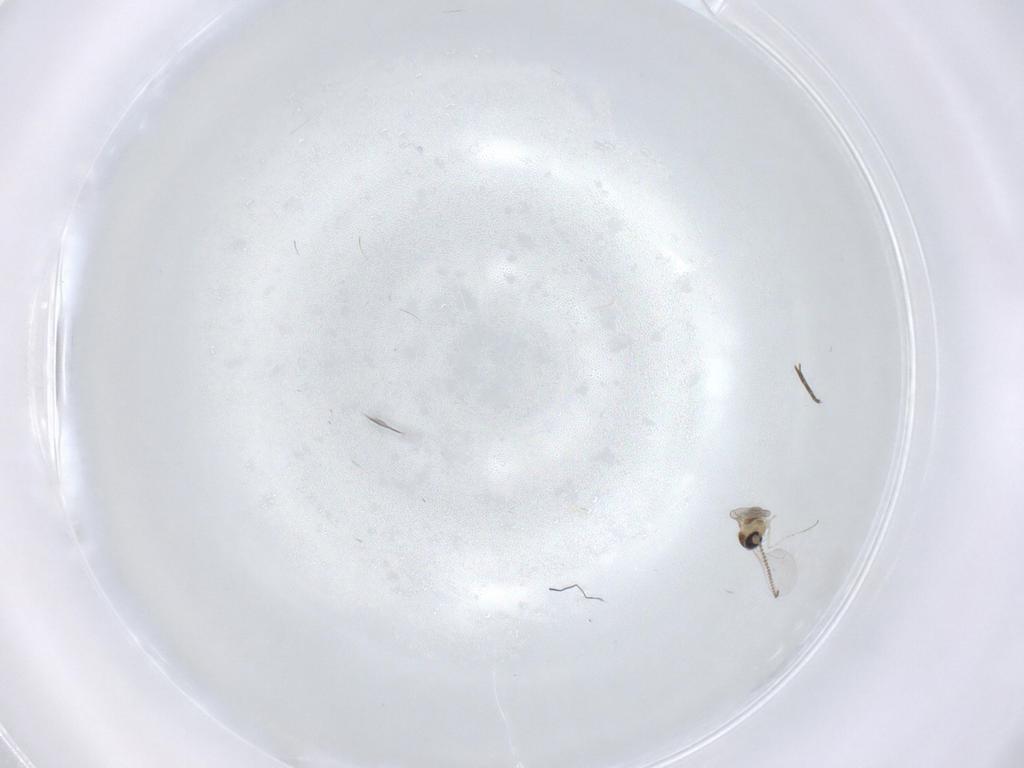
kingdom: Animalia
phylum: Arthropoda
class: Insecta
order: Diptera
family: Cecidomyiidae
